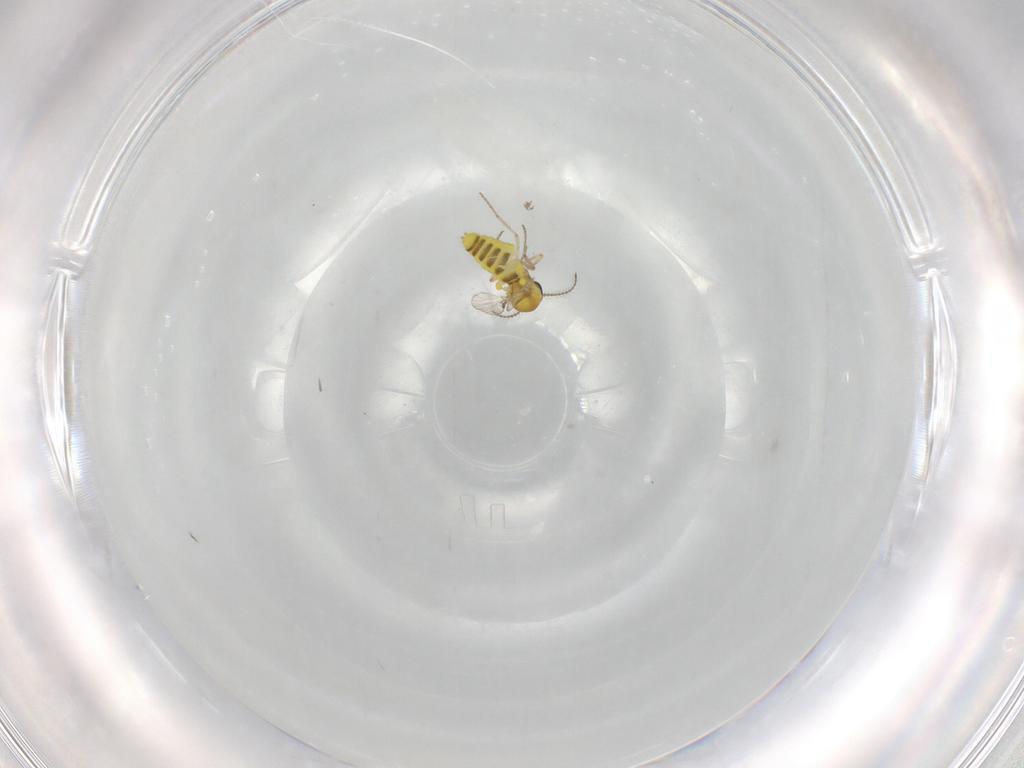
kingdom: Animalia
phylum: Arthropoda
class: Insecta
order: Diptera
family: Ceratopogonidae
